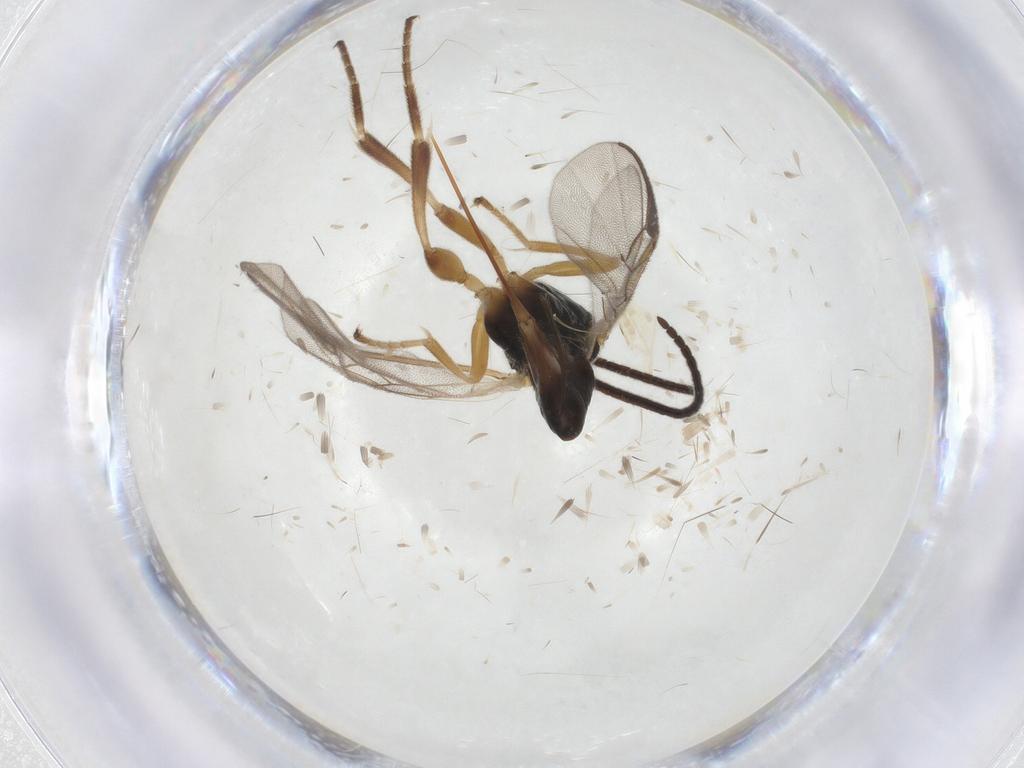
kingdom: Animalia
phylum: Arthropoda
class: Insecta
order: Hymenoptera
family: Braconidae
